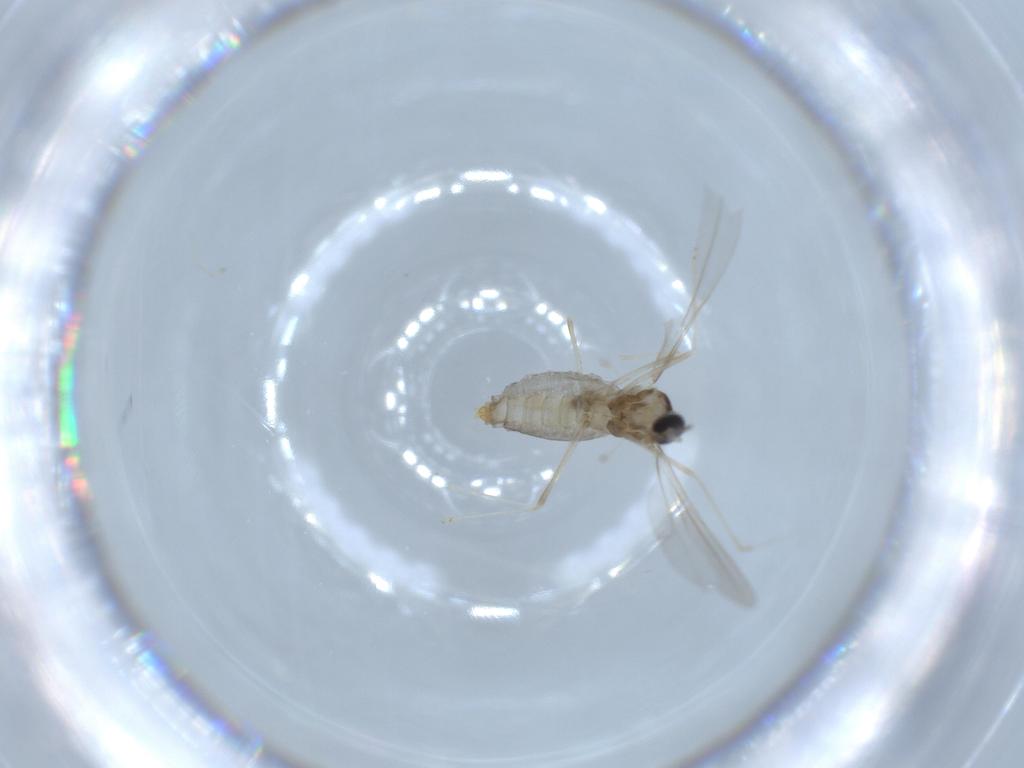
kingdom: Animalia
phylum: Arthropoda
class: Insecta
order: Diptera
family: Cecidomyiidae
